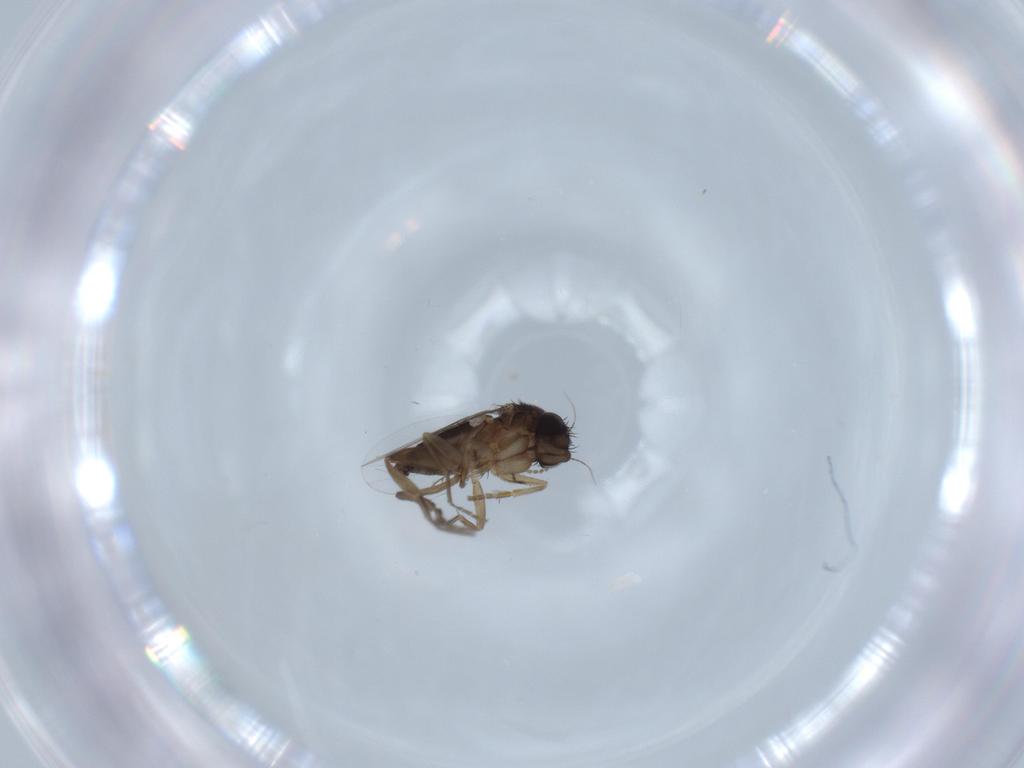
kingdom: Animalia
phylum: Arthropoda
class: Insecta
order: Diptera
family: Phoridae
